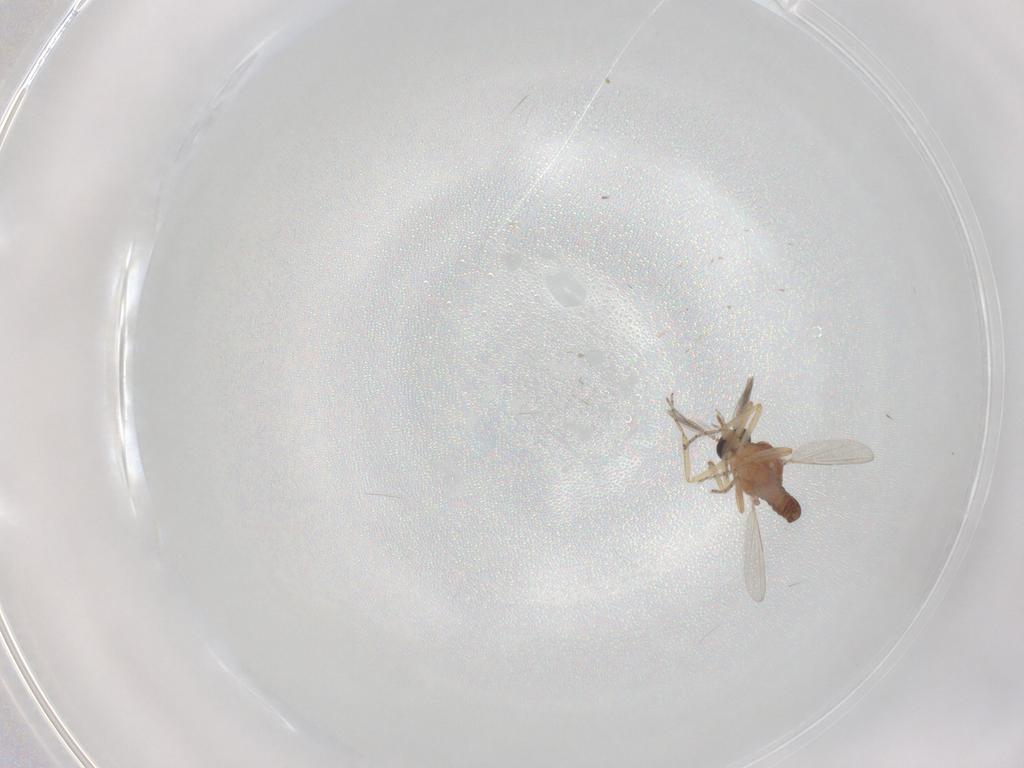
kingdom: Animalia
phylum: Arthropoda
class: Insecta
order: Diptera
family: Ceratopogonidae
